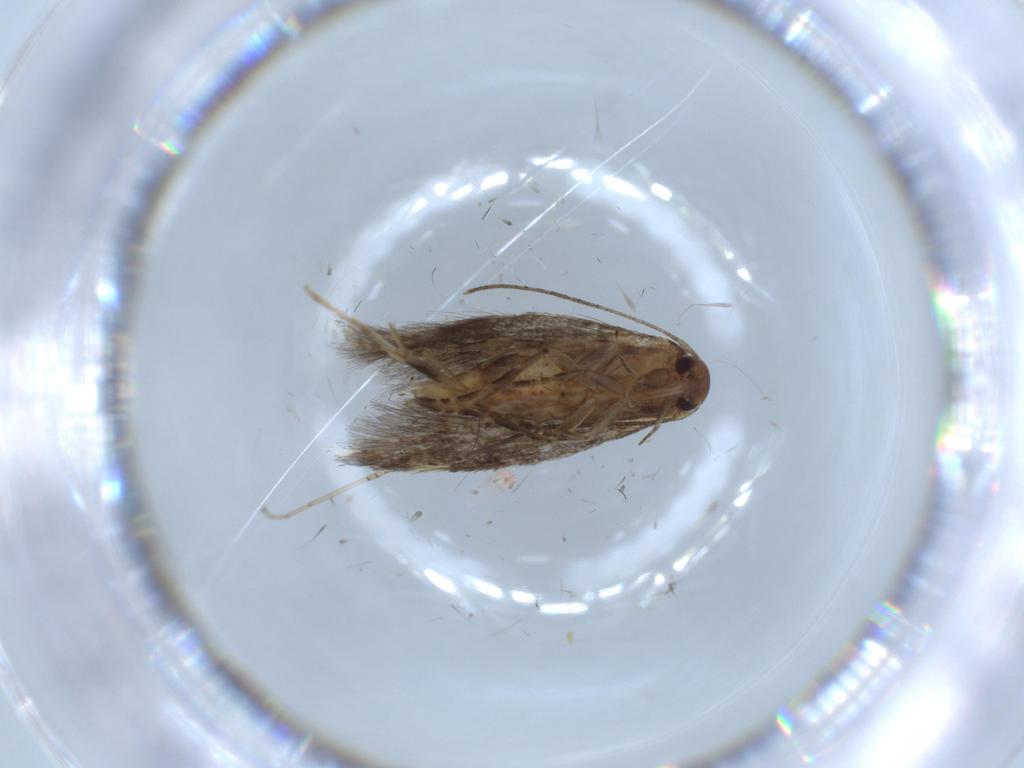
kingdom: Animalia
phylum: Arthropoda
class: Insecta
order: Lepidoptera
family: Elachistidae
